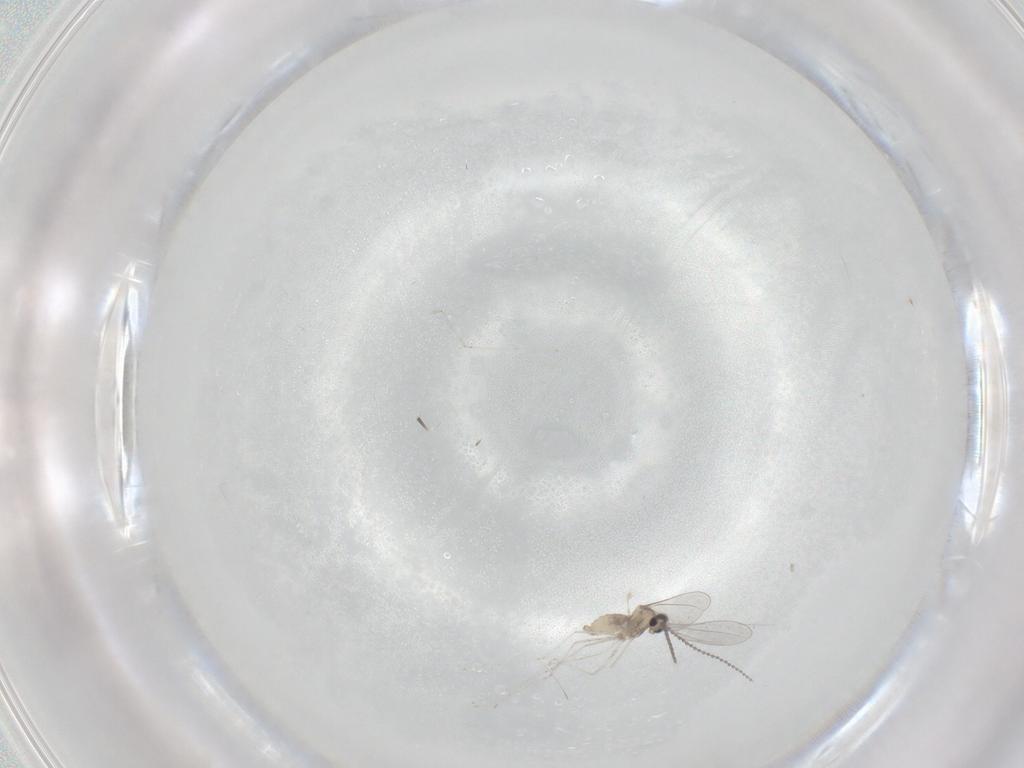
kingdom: Animalia
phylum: Arthropoda
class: Insecta
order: Diptera
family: Cecidomyiidae
